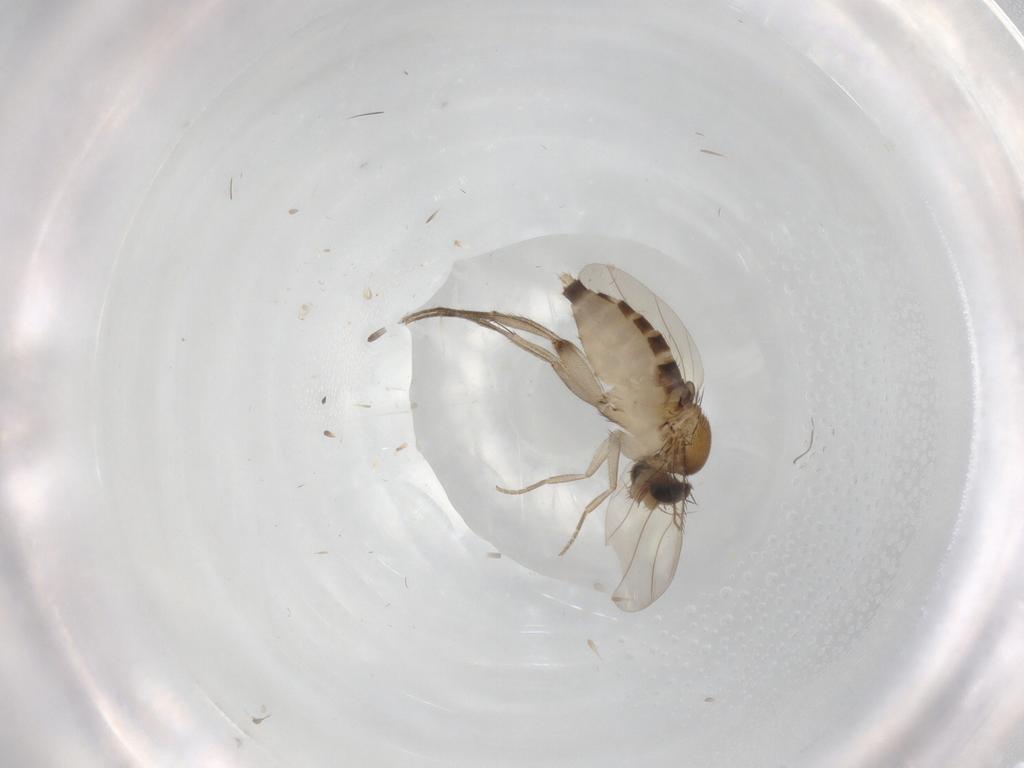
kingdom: Animalia
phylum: Arthropoda
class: Insecta
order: Diptera
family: Phoridae
